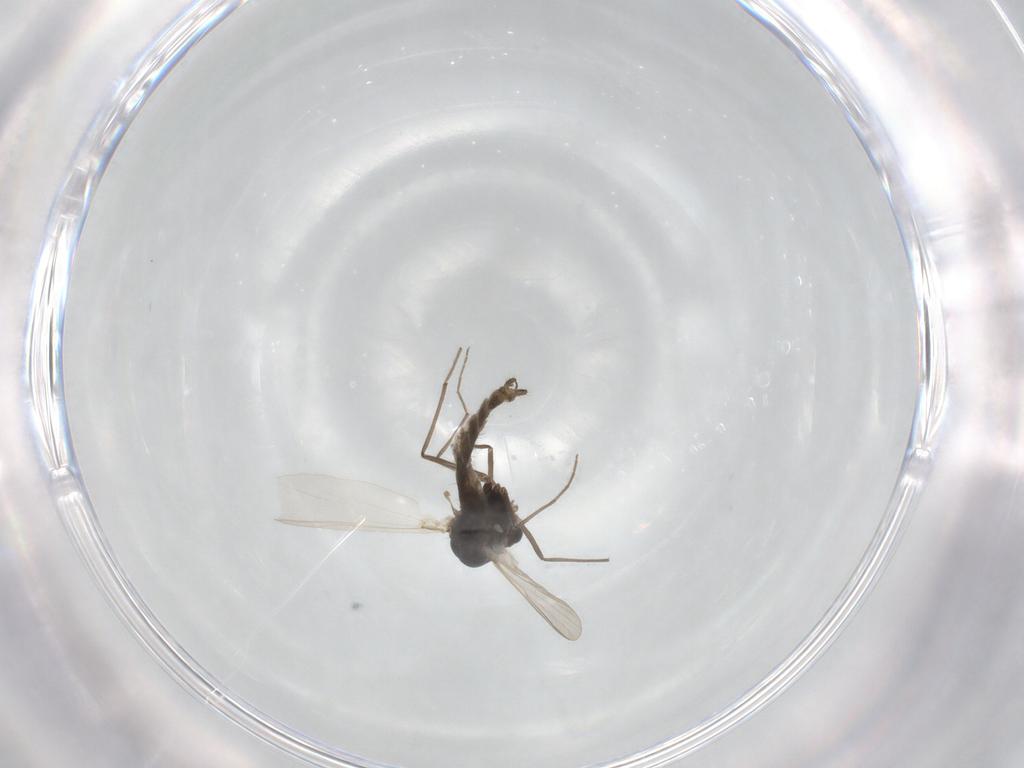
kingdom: Animalia
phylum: Arthropoda
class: Insecta
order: Diptera
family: Chironomidae
